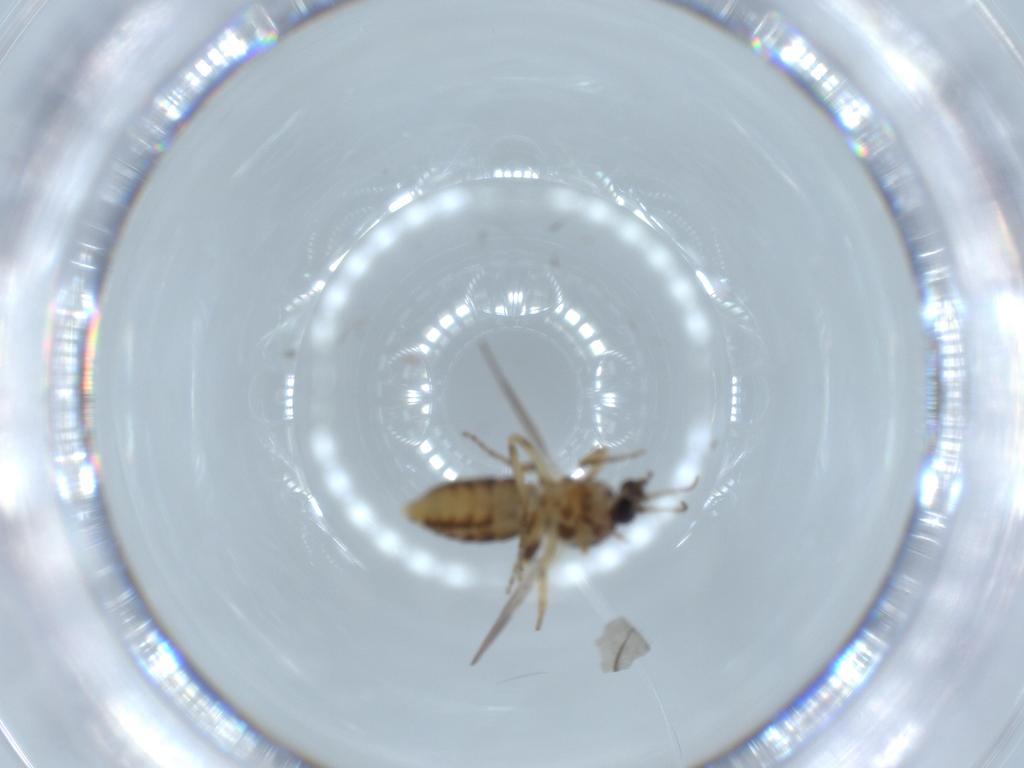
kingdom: Animalia
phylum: Arthropoda
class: Insecta
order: Diptera
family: Ceratopogonidae
